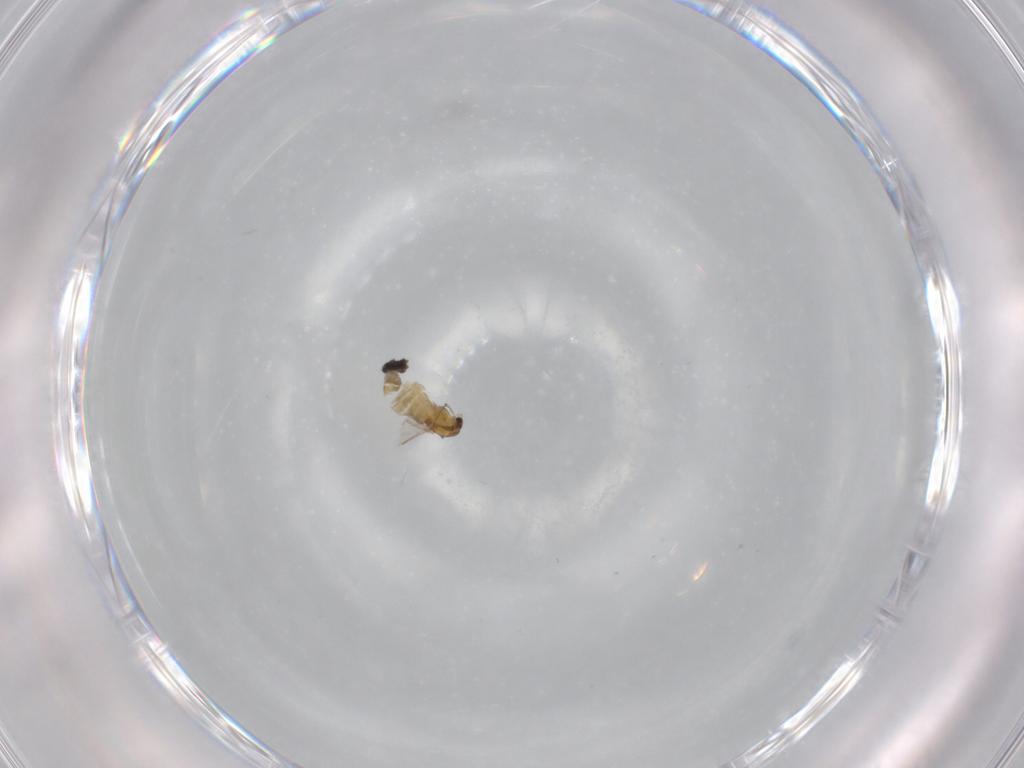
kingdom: Animalia
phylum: Arthropoda
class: Insecta
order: Diptera
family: Chironomidae
